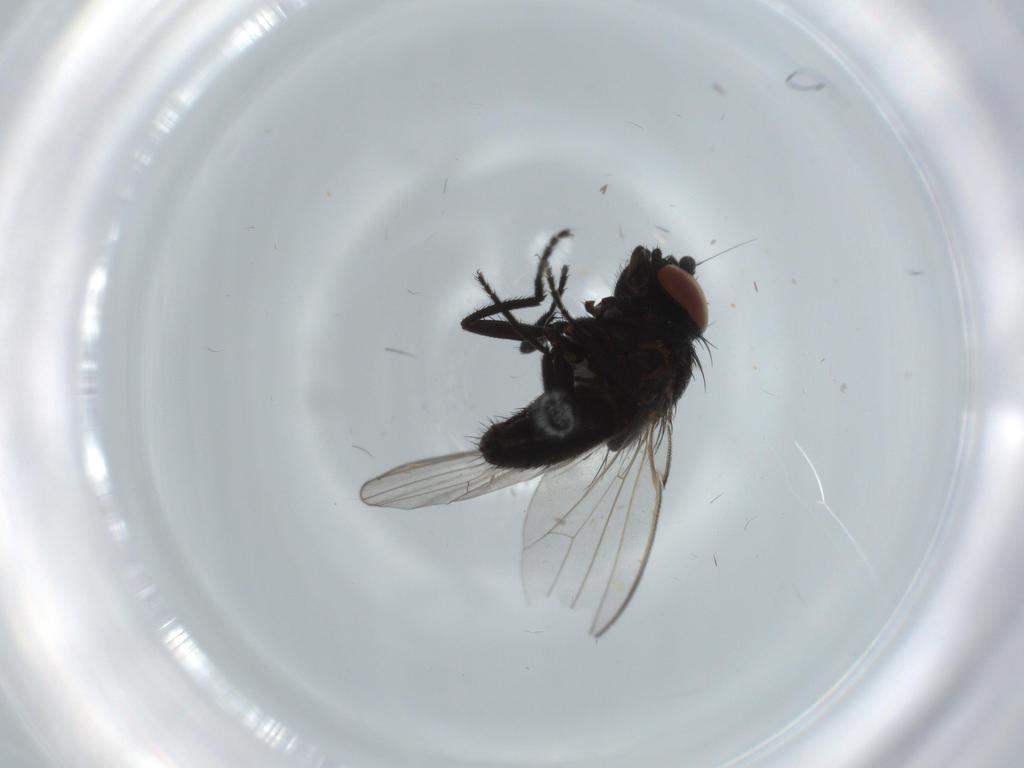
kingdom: Animalia
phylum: Arthropoda
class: Insecta
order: Diptera
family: Milichiidae
